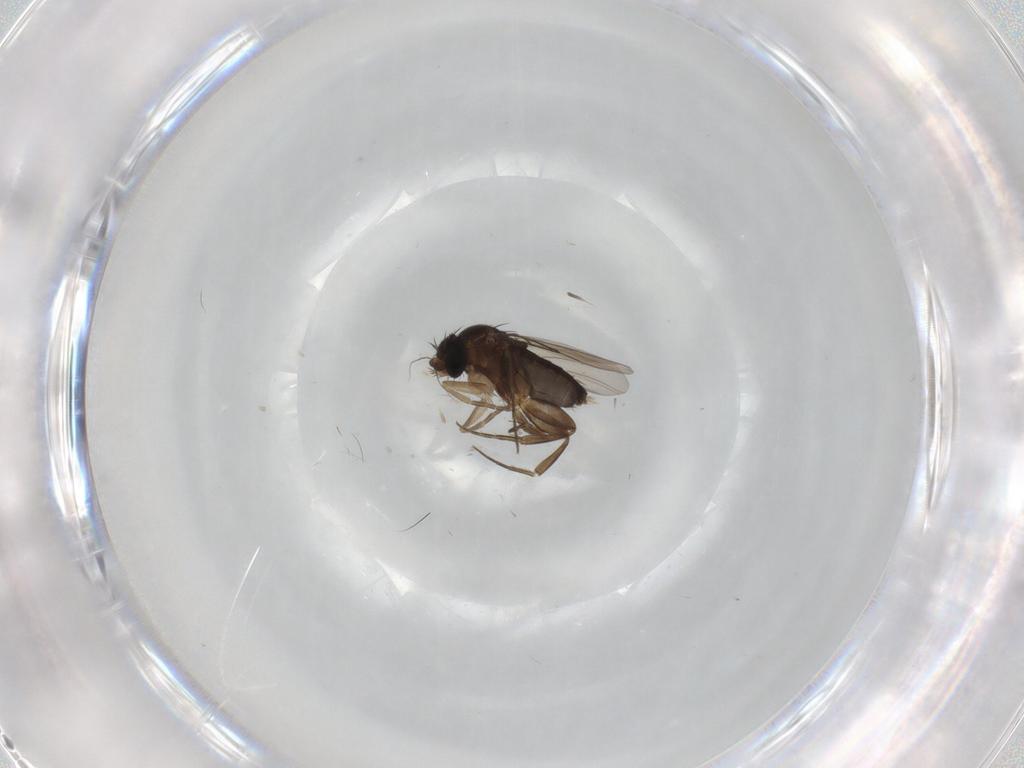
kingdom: Animalia
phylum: Arthropoda
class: Insecta
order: Diptera
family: Phoridae
